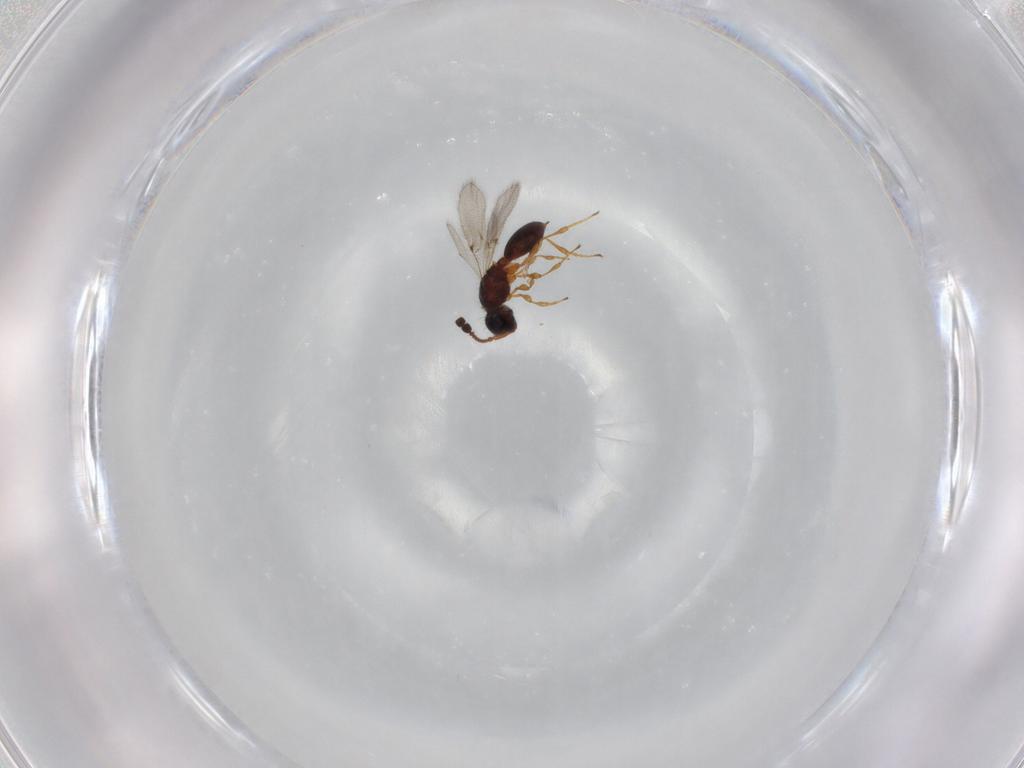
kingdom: Animalia
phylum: Arthropoda
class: Insecta
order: Hymenoptera
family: Diapriidae
